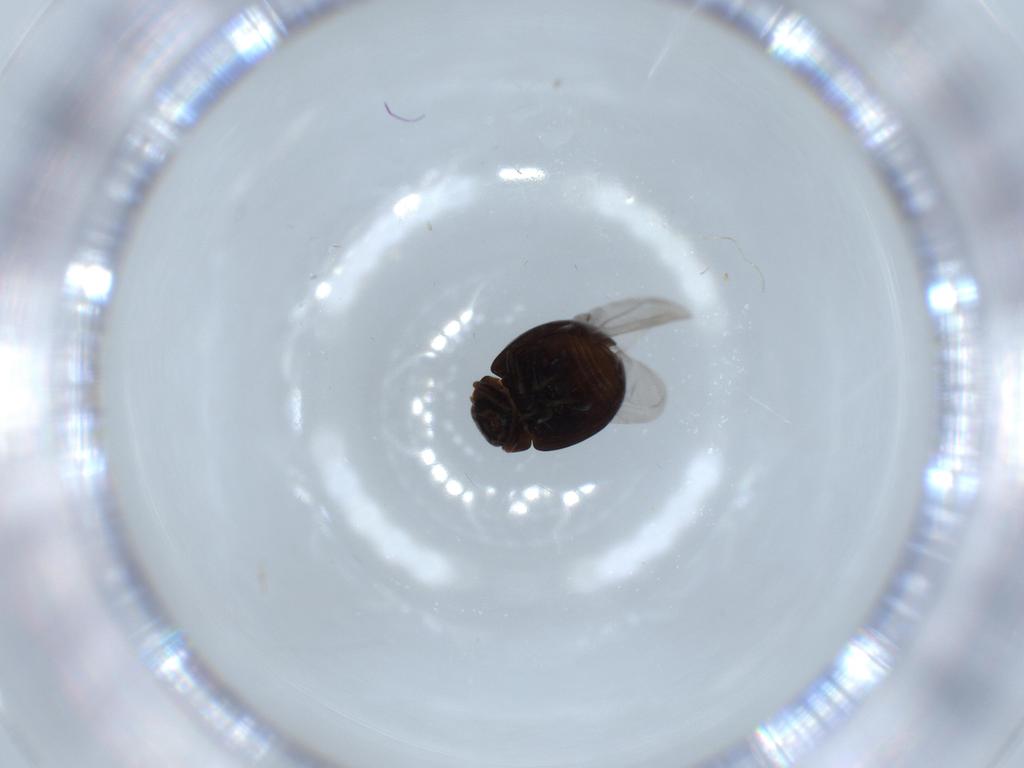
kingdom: Animalia
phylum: Arthropoda
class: Insecta
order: Coleoptera
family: Coccinellidae
